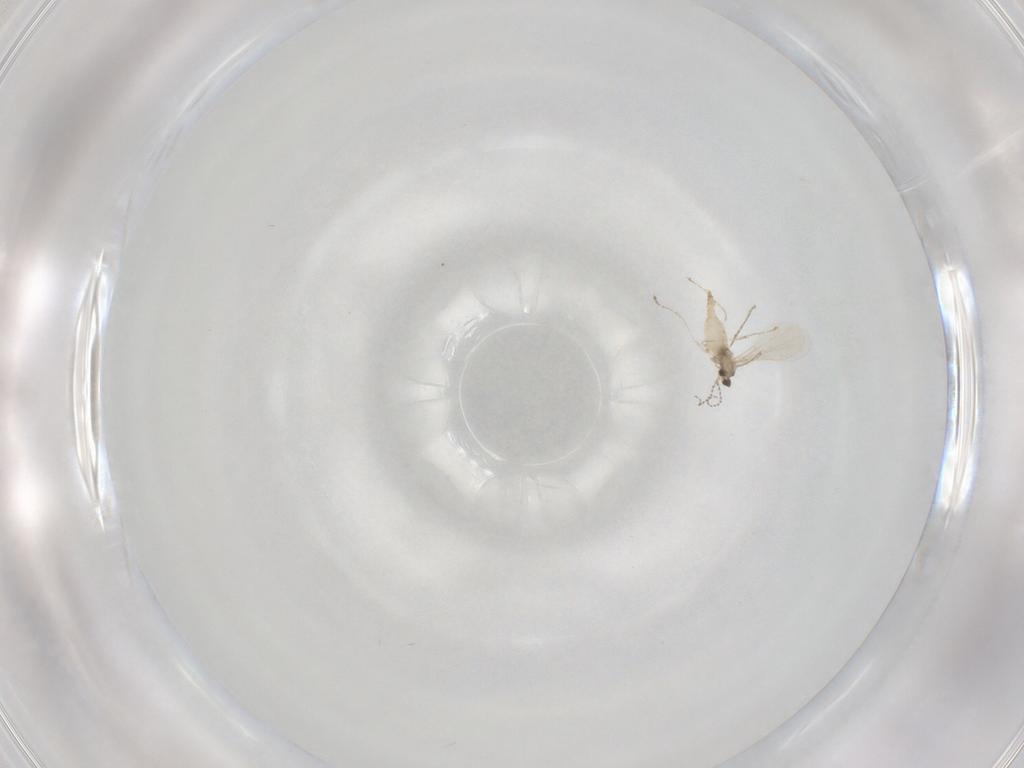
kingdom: Animalia
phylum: Arthropoda
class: Insecta
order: Diptera
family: Cecidomyiidae
